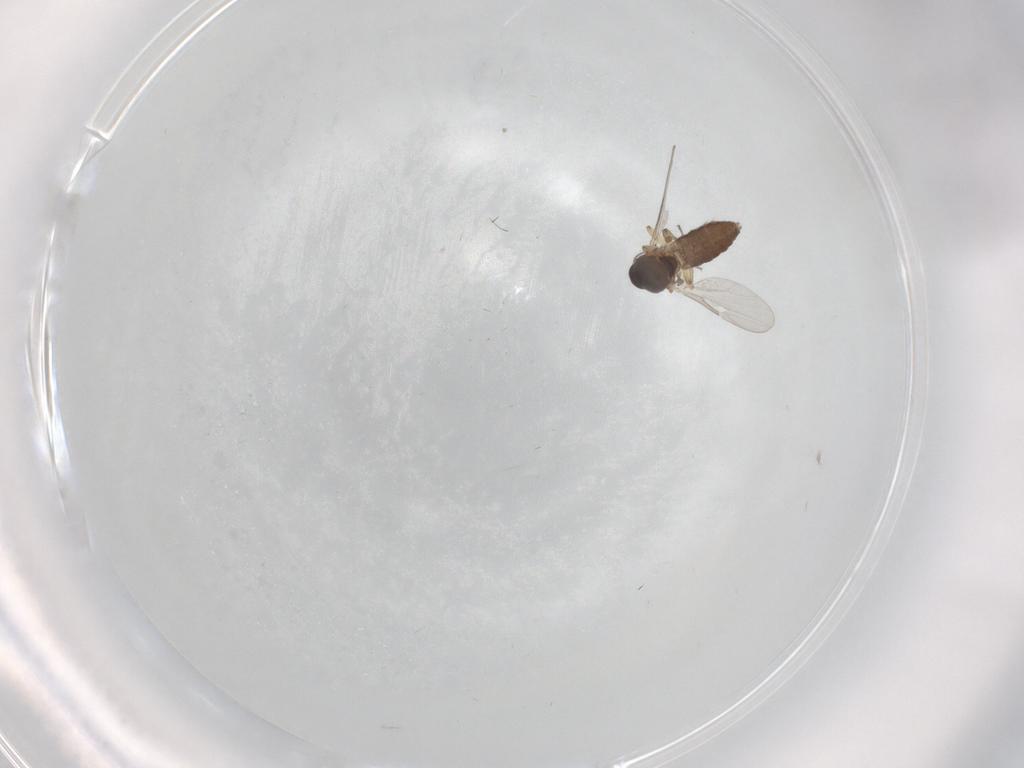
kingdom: Animalia
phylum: Arthropoda
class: Insecta
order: Diptera
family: Ceratopogonidae
